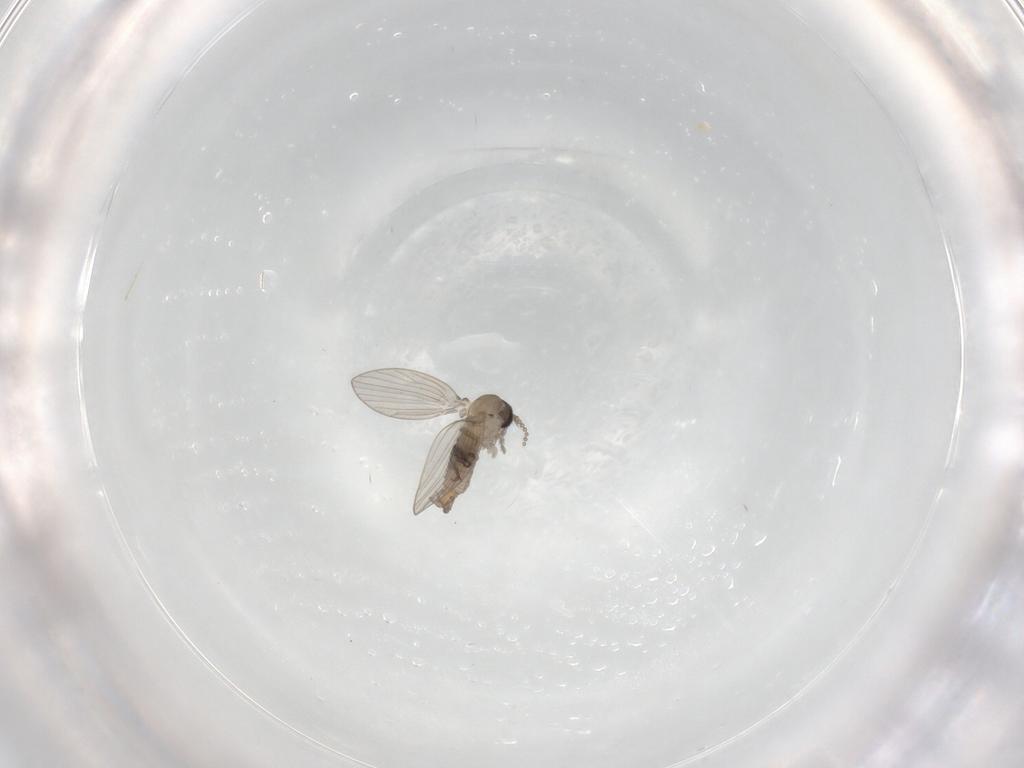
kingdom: Animalia
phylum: Arthropoda
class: Insecta
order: Diptera
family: Psychodidae
